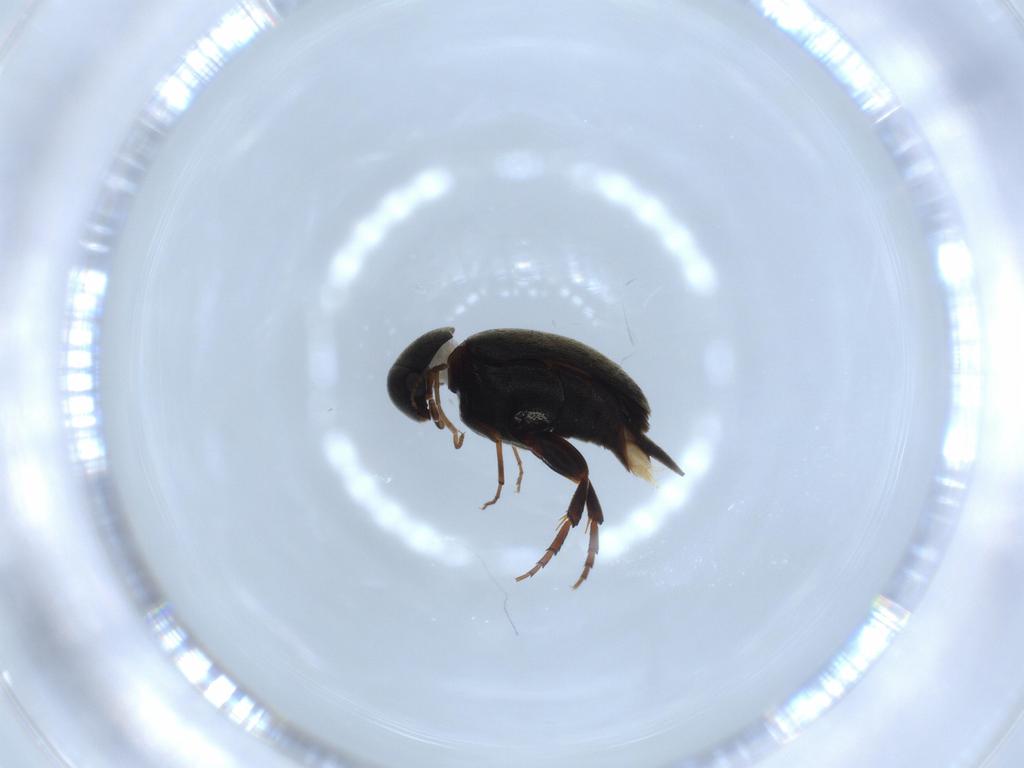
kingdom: Animalia
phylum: Arthropoda
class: Insecta
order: Coleoptera
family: Mordellidae
